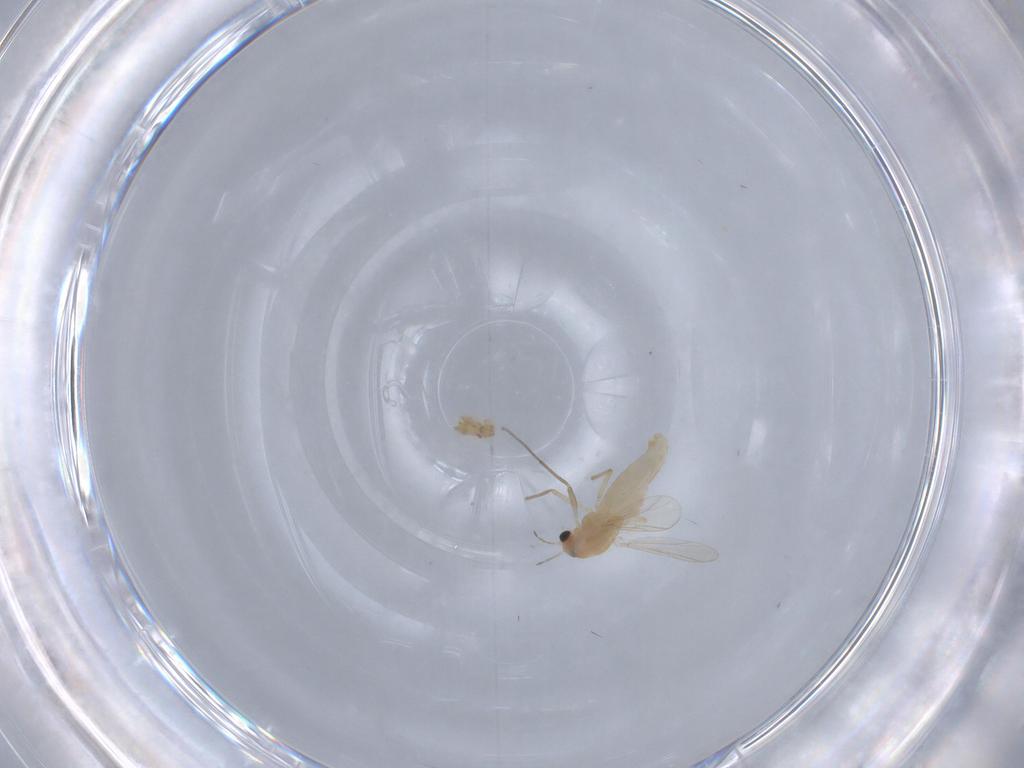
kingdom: Animalia
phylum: Arthropoda
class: Insecta
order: Diptera
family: Chironomidae
